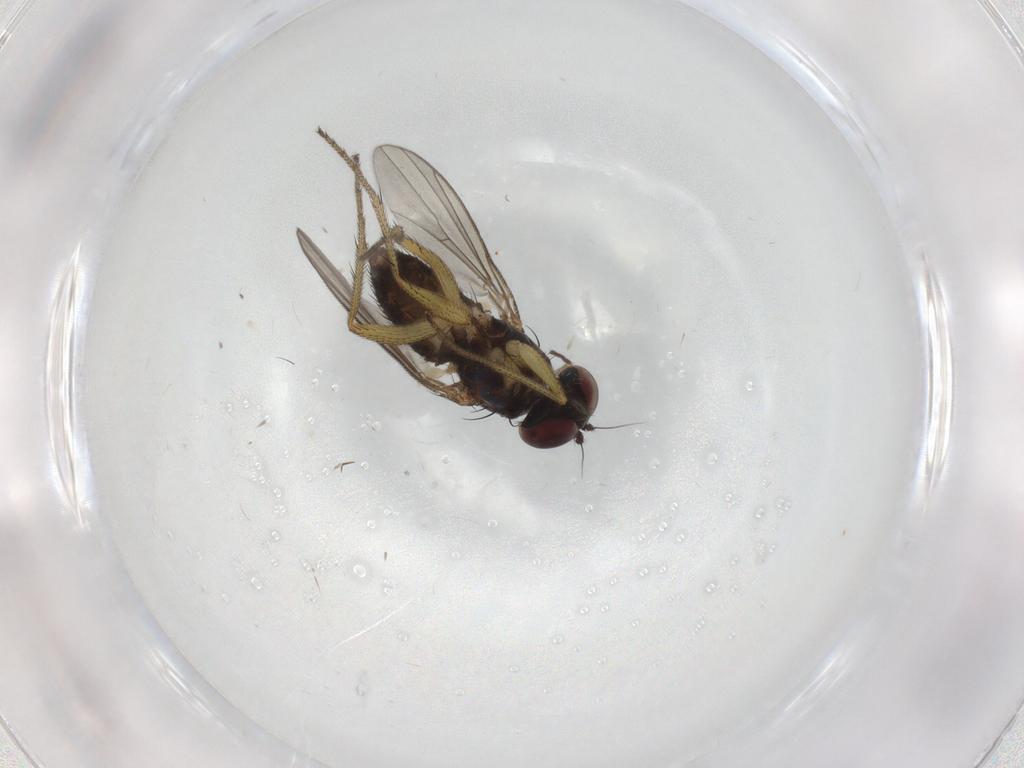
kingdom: Animalia
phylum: Arthropoda
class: Insecta
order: Diptera
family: Dolichopodidae
